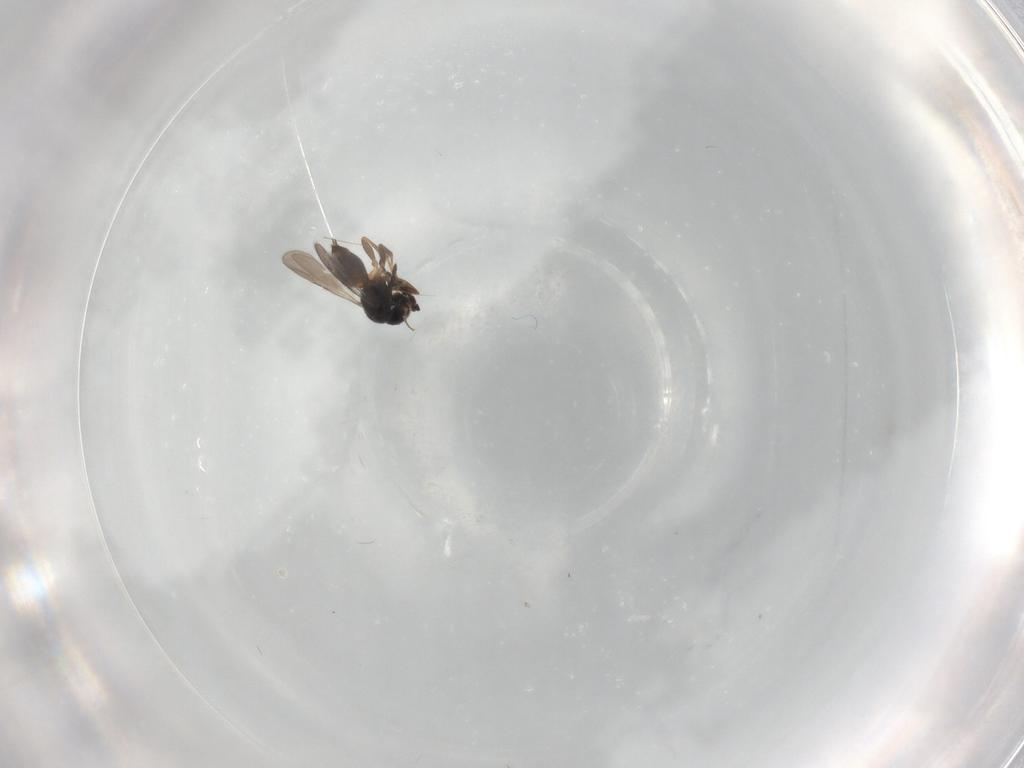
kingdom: Animalia
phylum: Arthropoda
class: Insecta
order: Hymenoptera
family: Ceraphronidae
